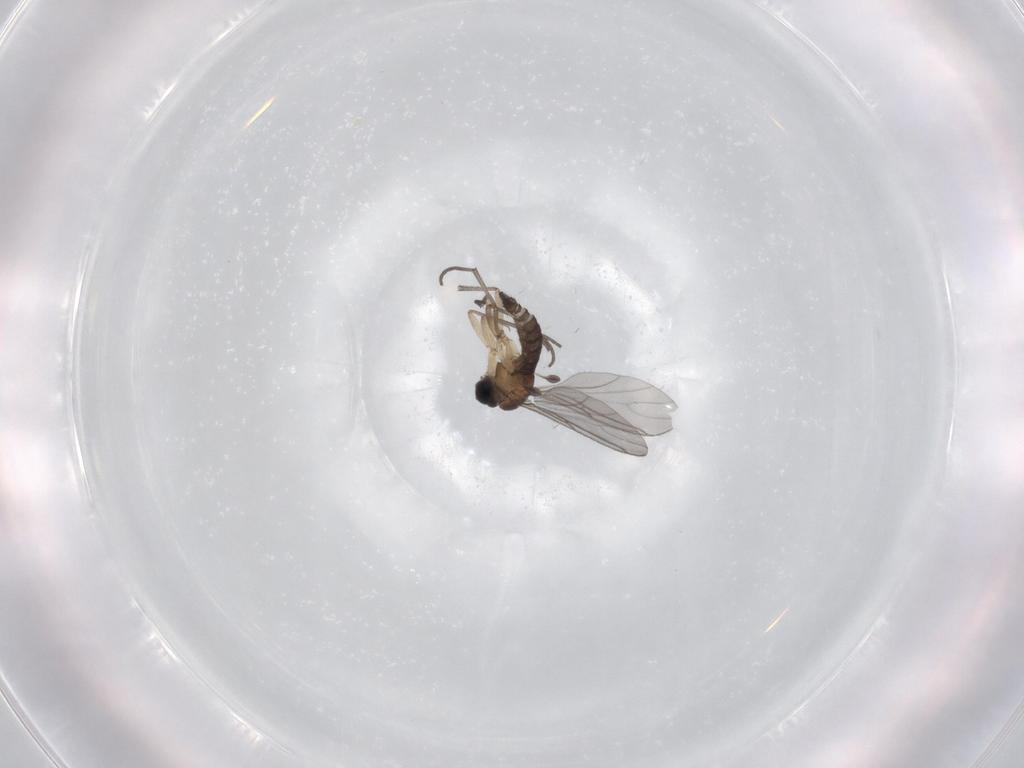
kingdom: Animalia
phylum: Arthropoda
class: Insecta
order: Diptera
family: Sciaridae
